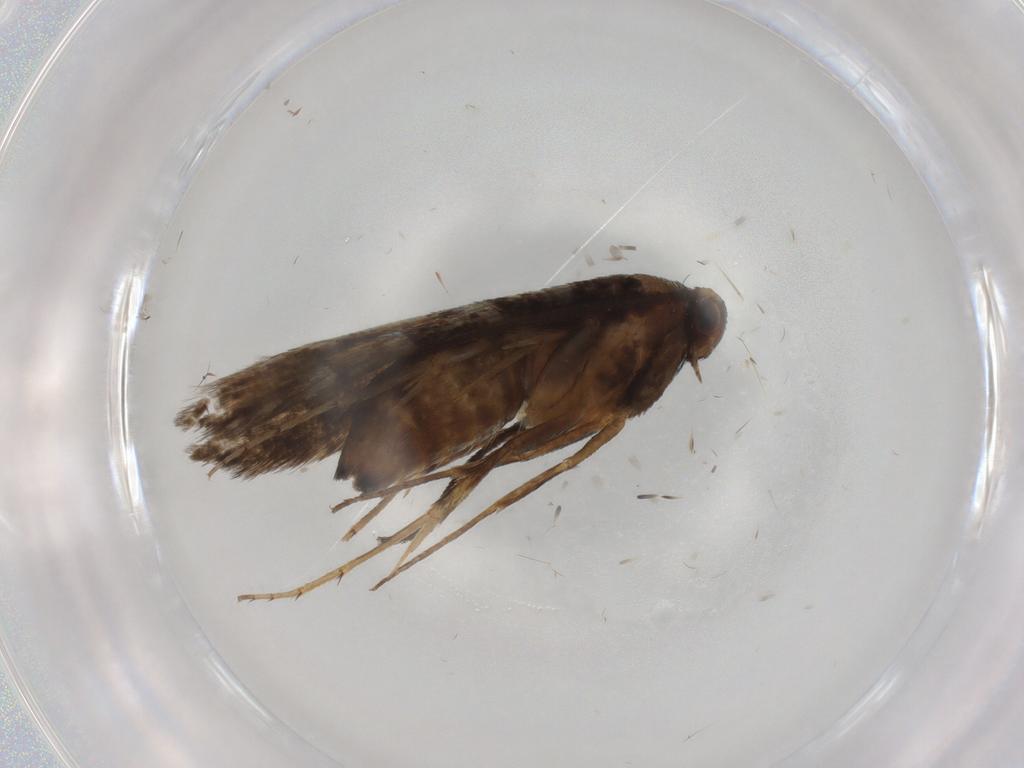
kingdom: Animalia
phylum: Arthropoda
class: Insecta
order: Lepidoptera
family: Heliodinidae
